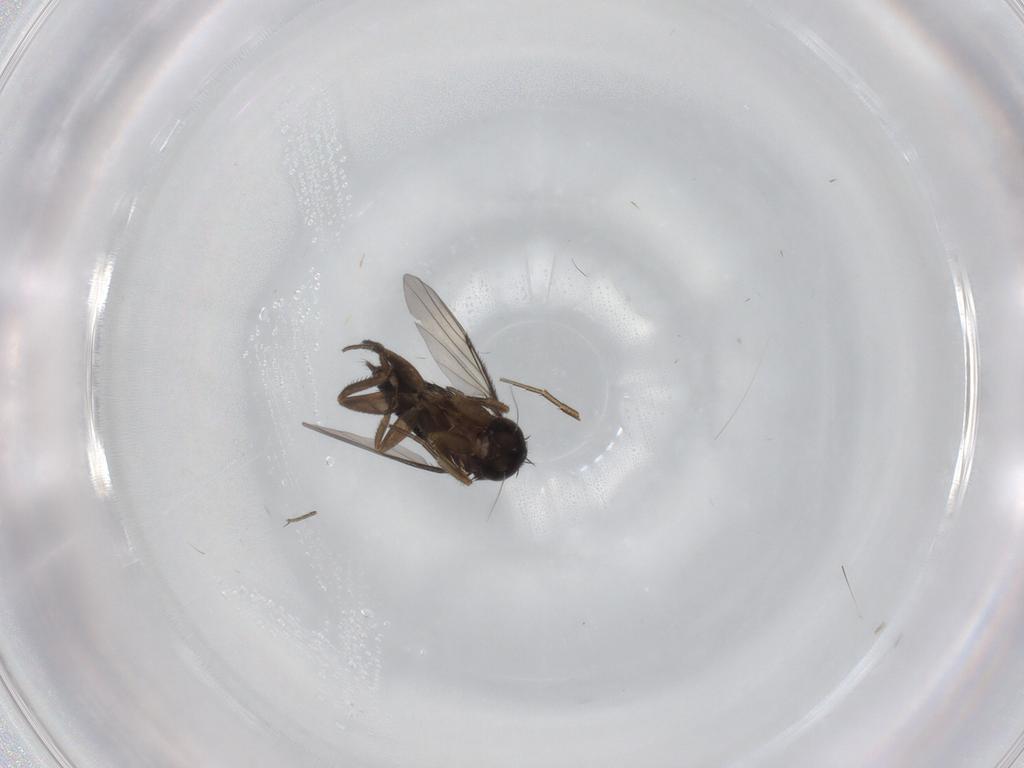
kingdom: Animalia
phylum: Arthropoda
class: Insecta
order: Diptera
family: Phoridae
